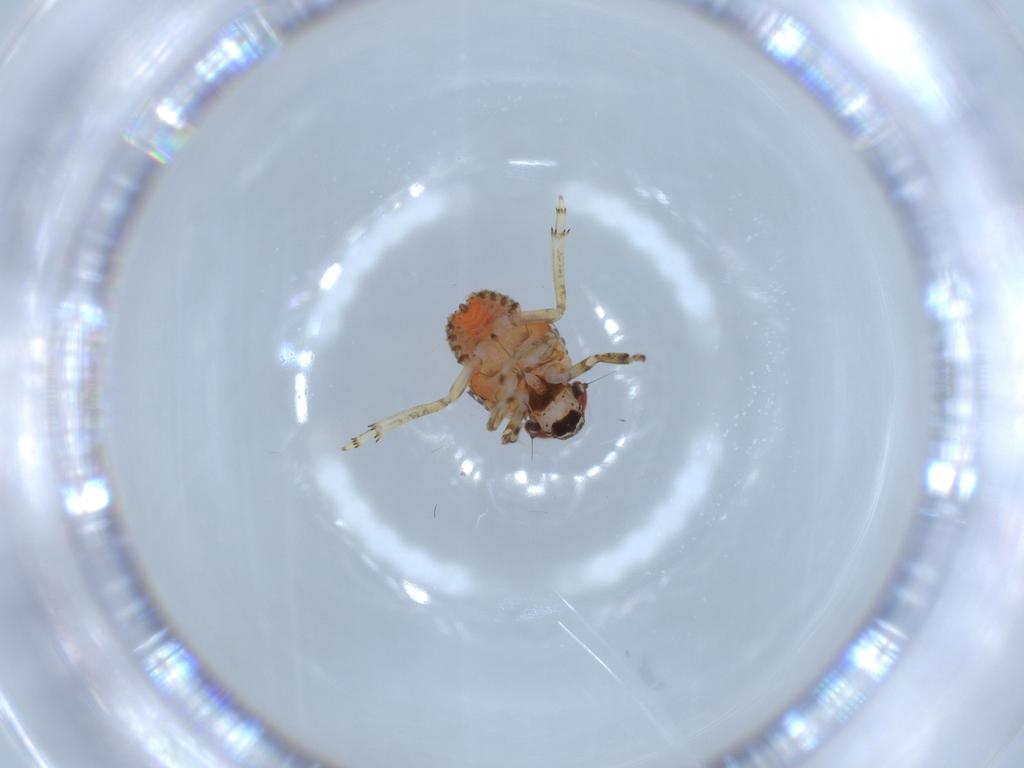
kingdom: Animalia
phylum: Arthropoda
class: Insecta
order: Hemiptera
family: Issidae
